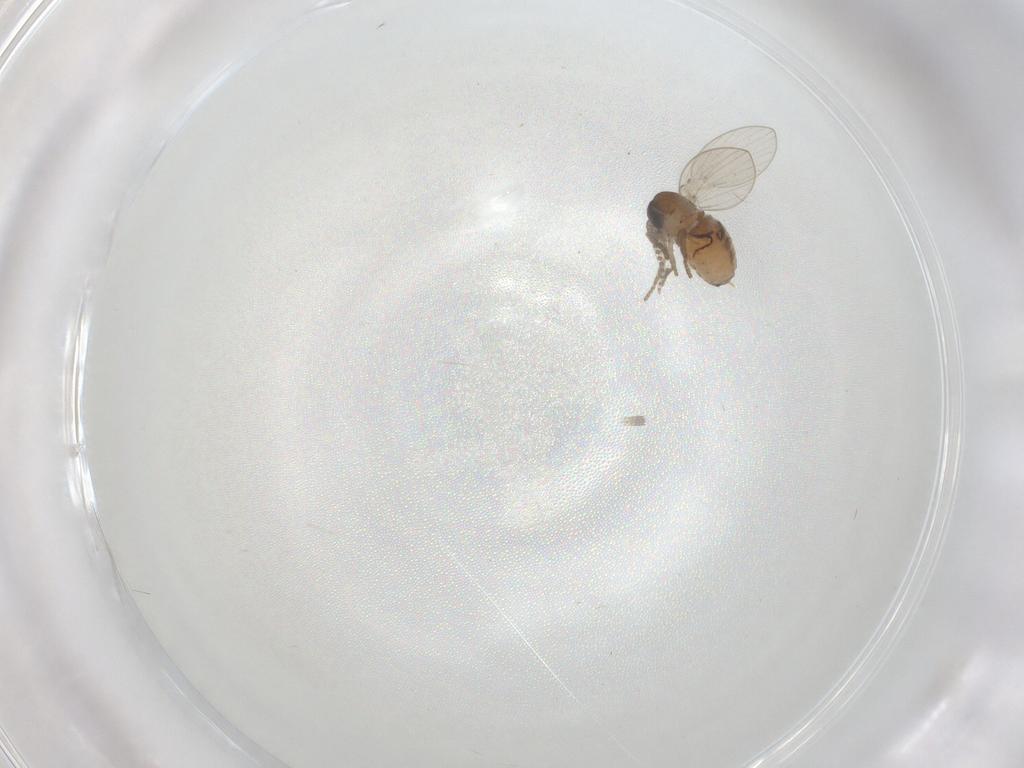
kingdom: Animalia
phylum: Arthropoda
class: Insecta
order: Diptera
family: Psychodidae
